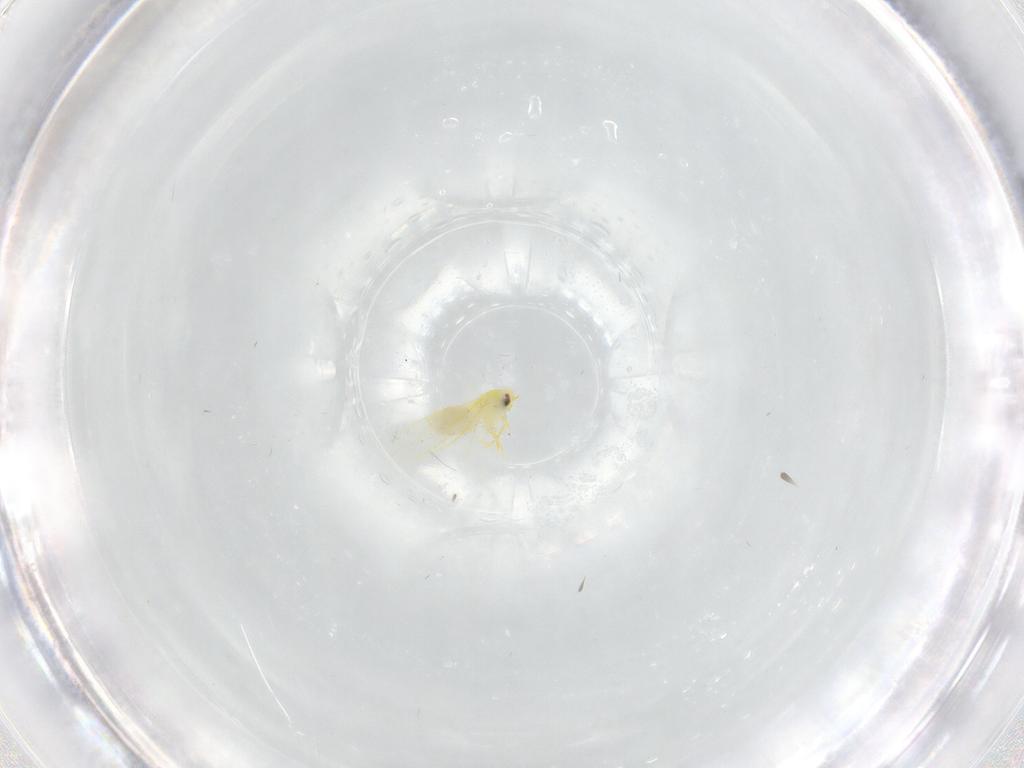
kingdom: Animalia
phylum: Arthropoda
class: Insecta
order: Hemiptera
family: Aleyrodidae
